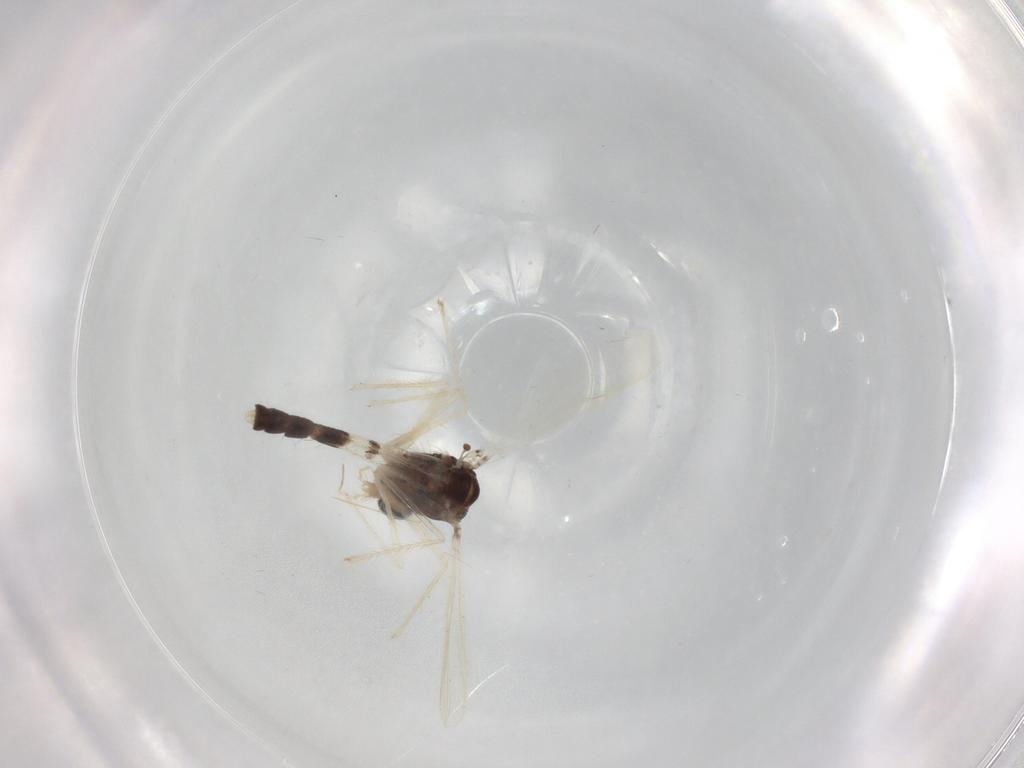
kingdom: Animalia
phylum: Arthropoda
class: Insecta
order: Diptera
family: Chironomidae
